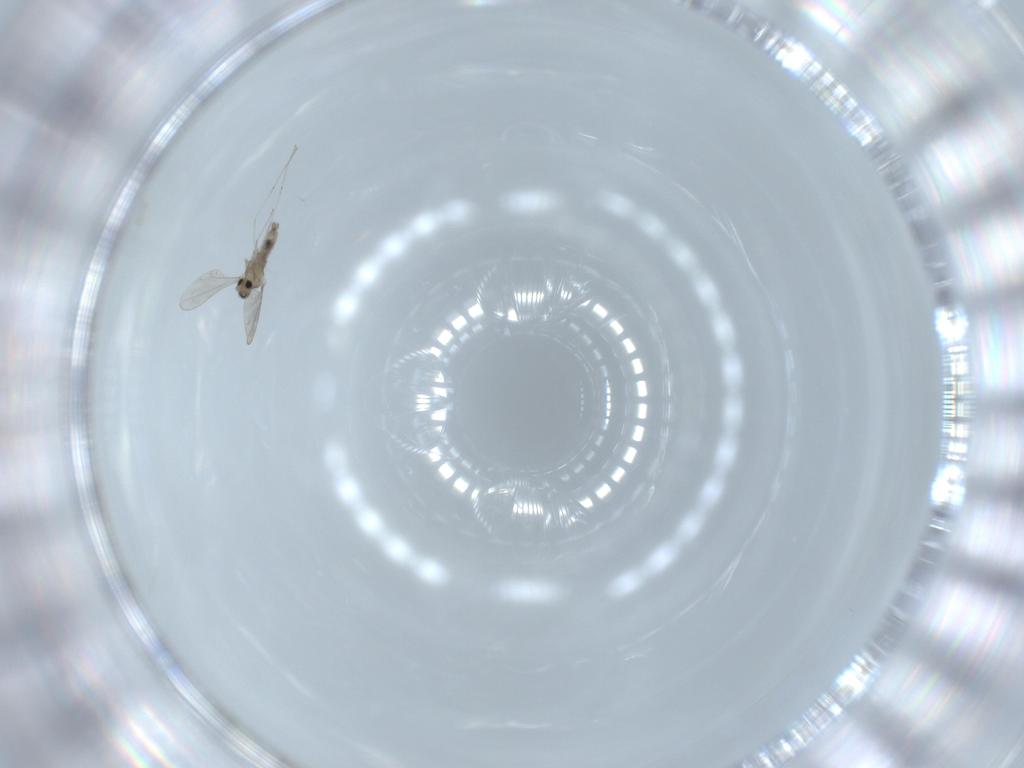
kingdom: Animalia
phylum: Arthropoda
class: Insecta
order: Diptera
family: Cecidomyiidae
